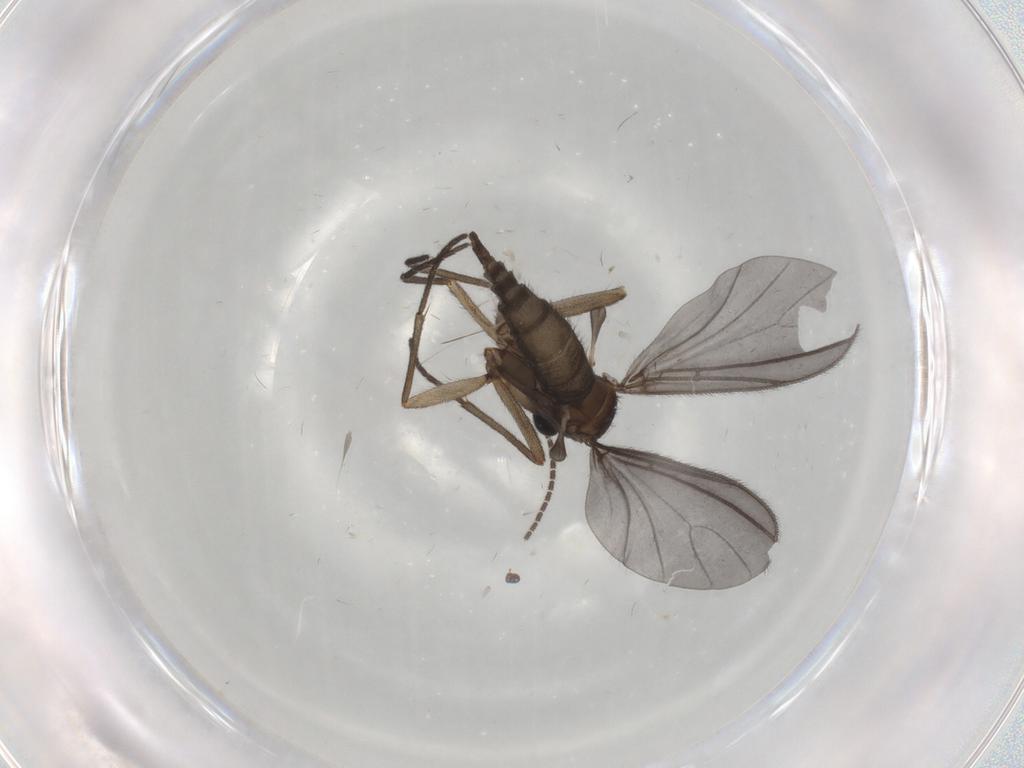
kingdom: Animalia
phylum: Arthropoda
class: Insecta
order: Diptera
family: Sciaridae
